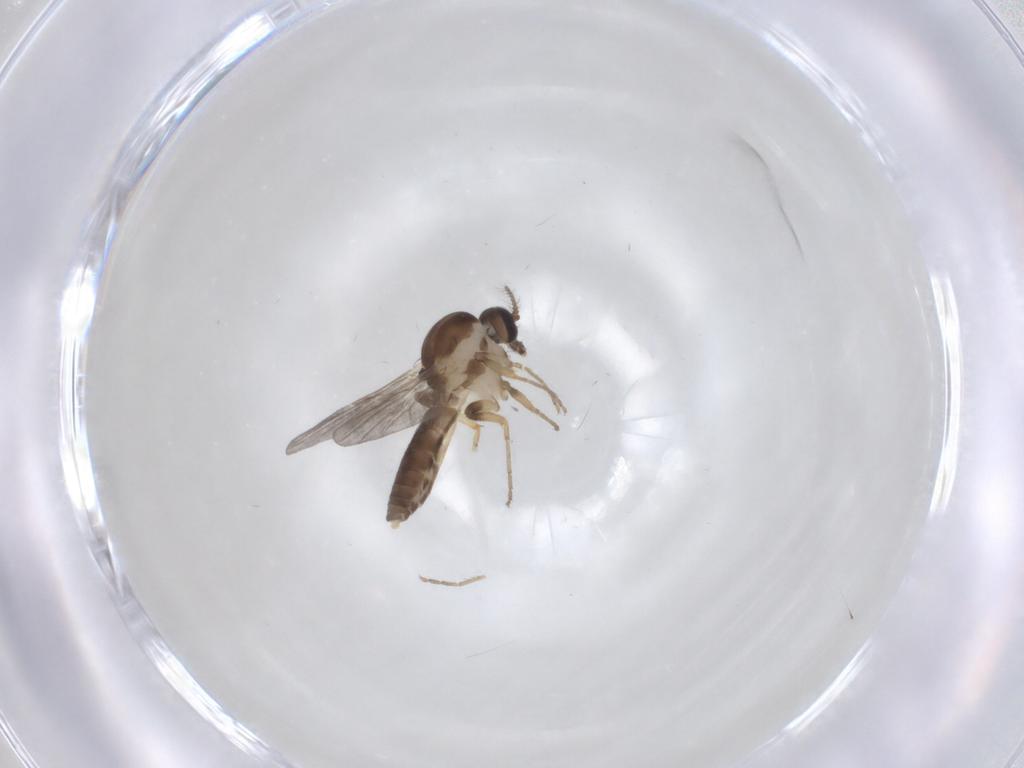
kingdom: Animalia
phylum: Arthropoda
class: Insecta
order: Diptera
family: Ceratopogonidae
